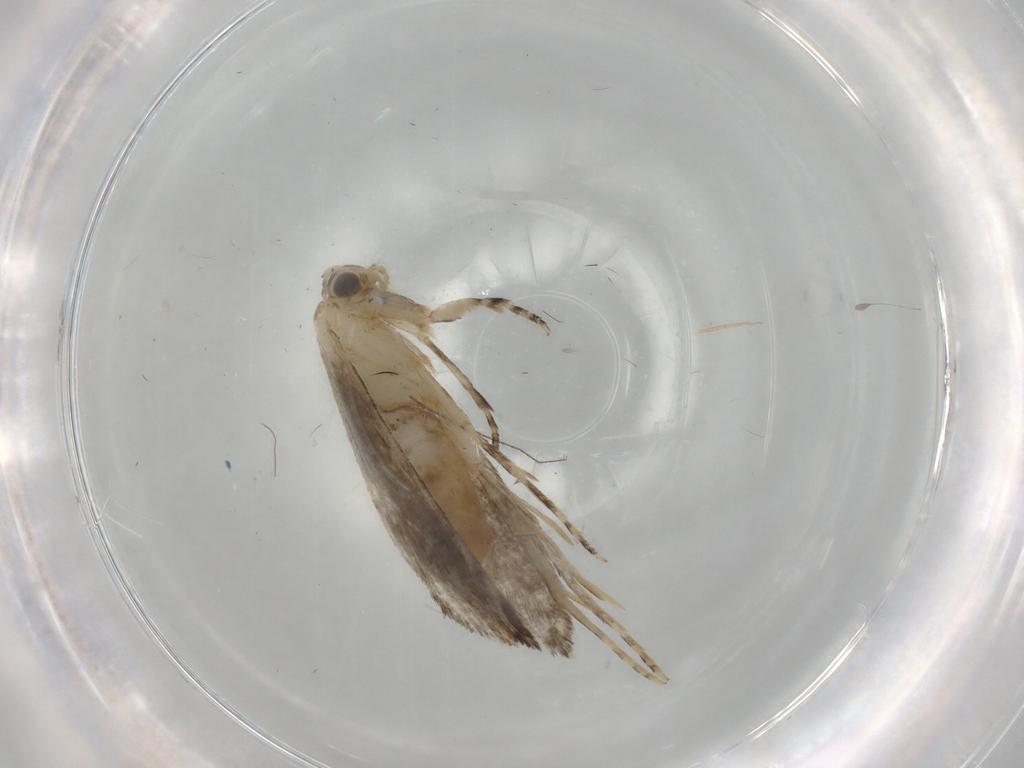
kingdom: Animalia
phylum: Arthropoda
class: Insecta
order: Lepidoptera
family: Tineidae
